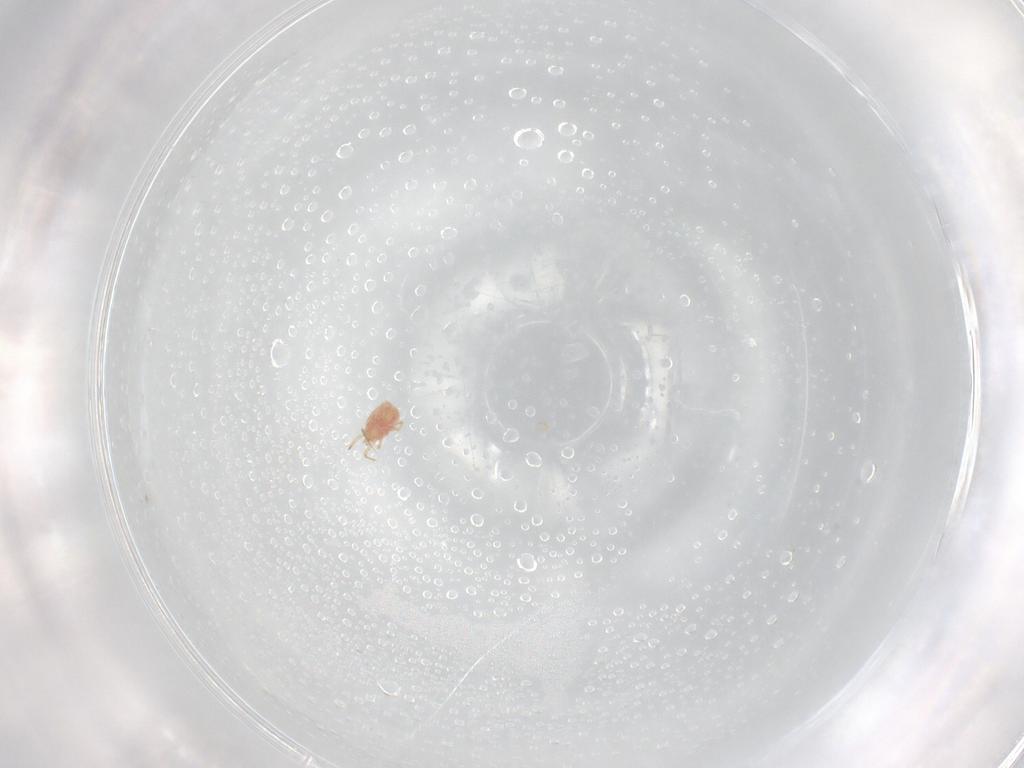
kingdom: Animalia
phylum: Arthropoda
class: Arachnida
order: Mesostigmata
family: Phytoseiidae
